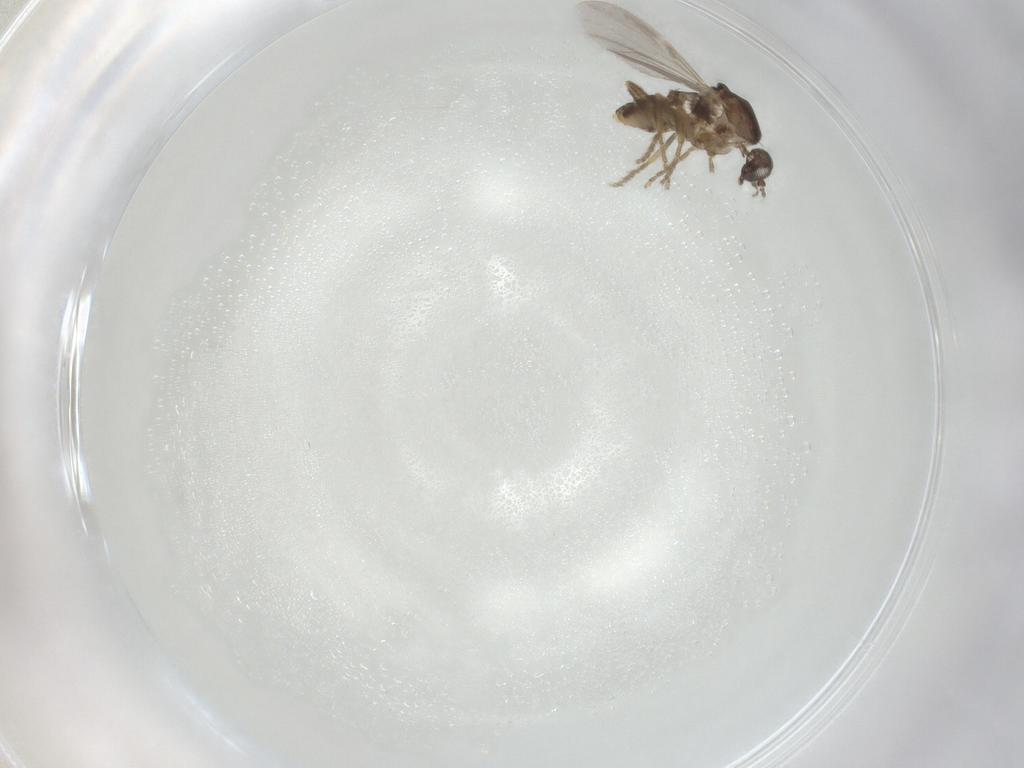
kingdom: Animalia
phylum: Arthropoda
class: Insecta
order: Diptera
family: Ceratopogonidae
